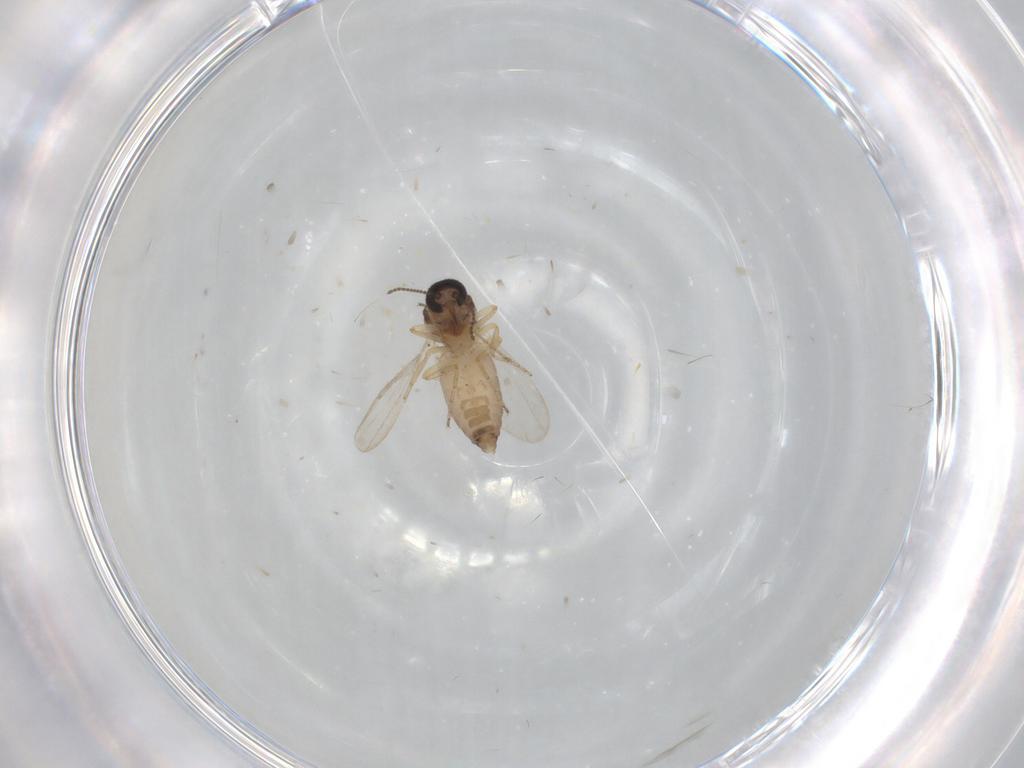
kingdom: Animalia
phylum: Arthropoda
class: Insecta
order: Diptera
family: Ceratopogonidae
